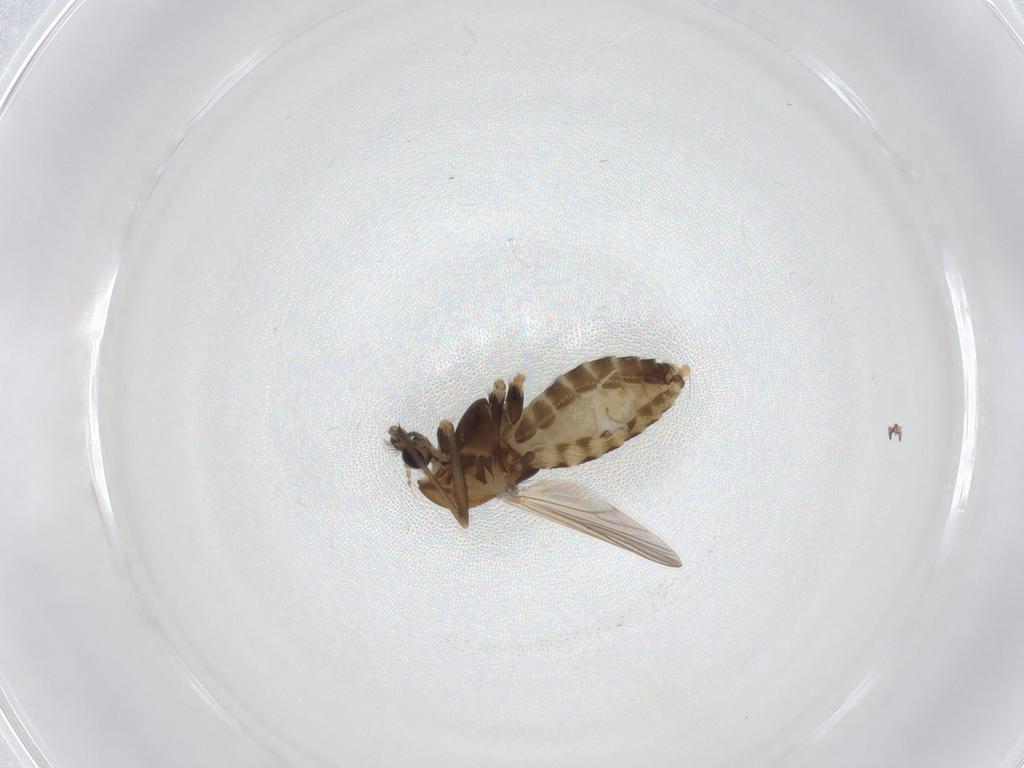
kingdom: Animalia
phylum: Arthropoda
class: Insecta
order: Diptera
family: Chironomidae
